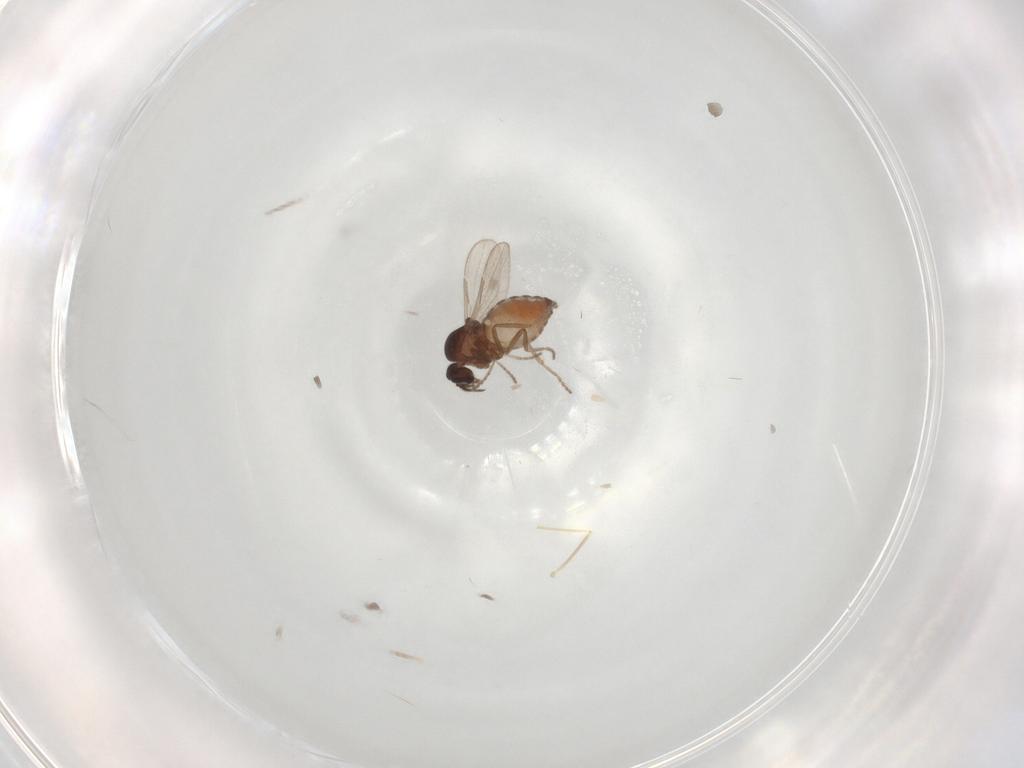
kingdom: Animalia
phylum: Arthropoda
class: Insecta
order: Diptera
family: Ceratopogonidae
